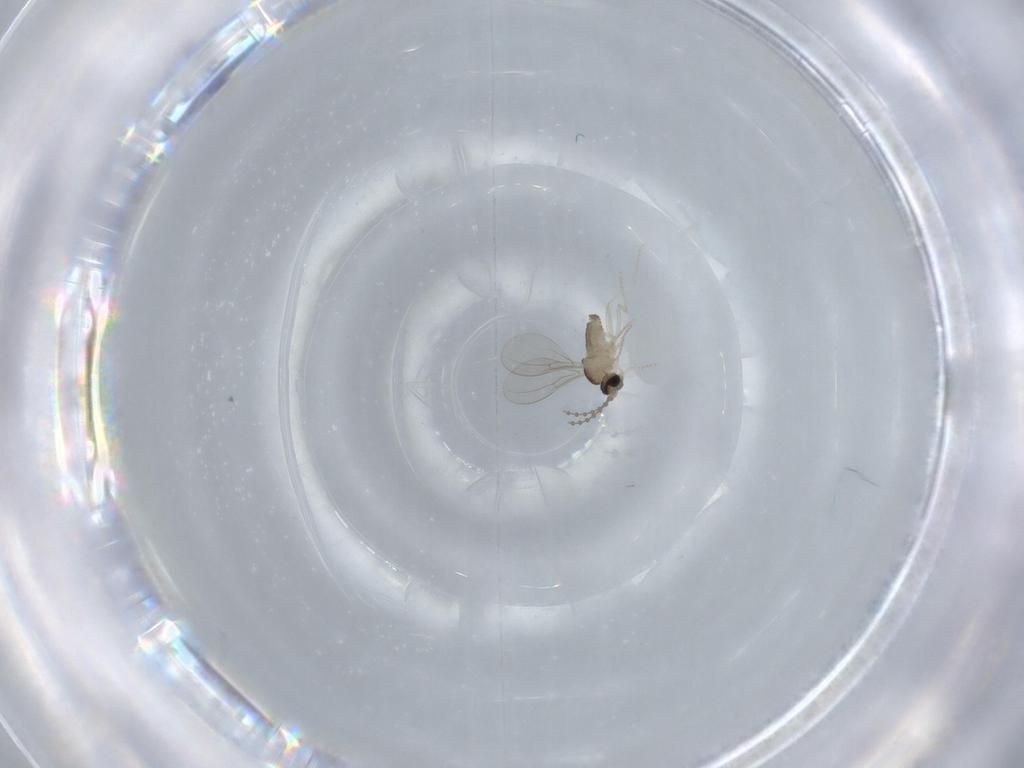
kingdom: Animalia
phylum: Arthropoda
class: Insecta
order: Diptera
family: Cecidomyiidae
